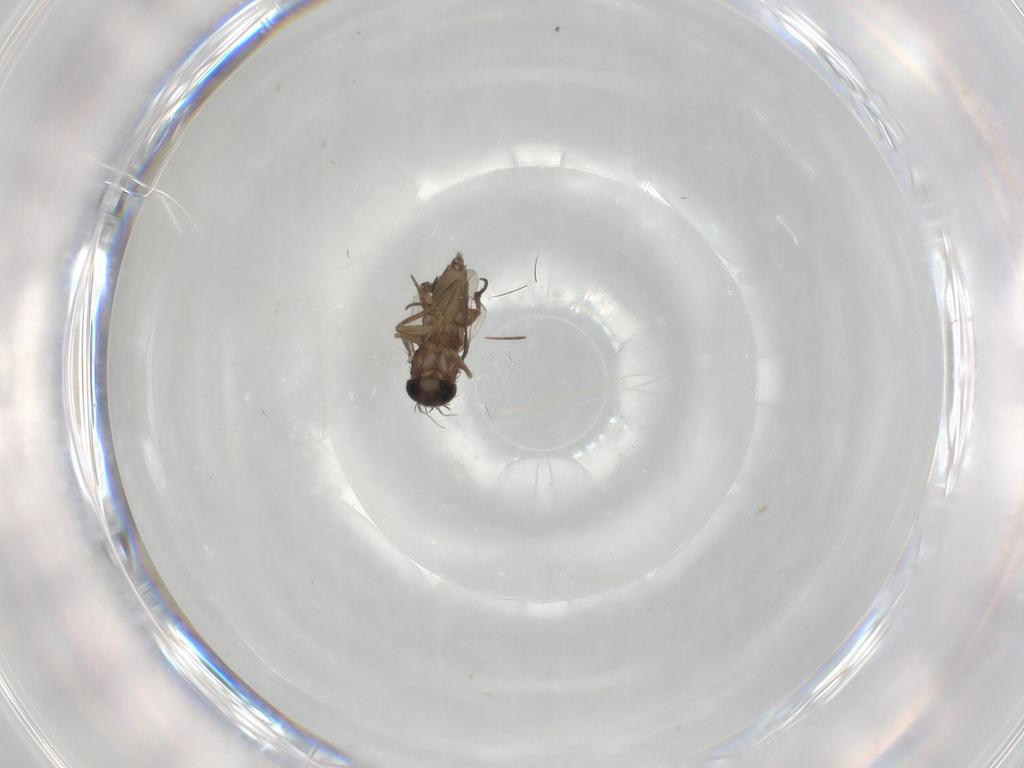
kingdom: Animalia
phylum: Arthropoda
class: Insecta
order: Diptera
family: Phoridae
